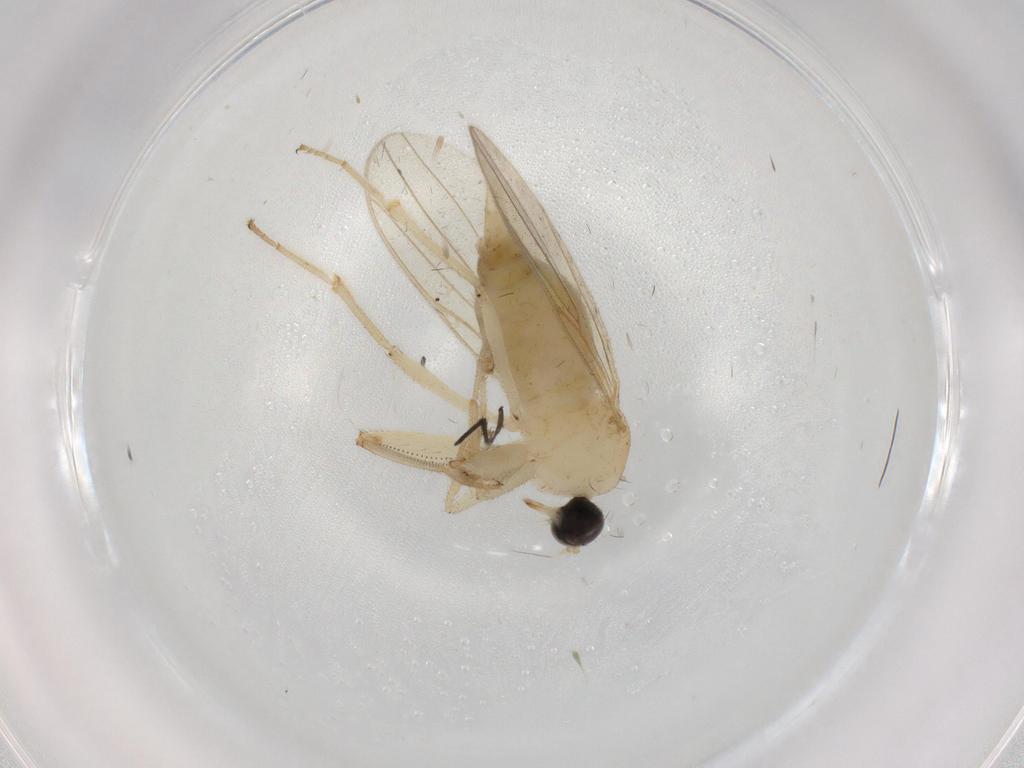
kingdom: Animalia
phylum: Arthropoda
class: Insecta
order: Diptera
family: Hybotidae
